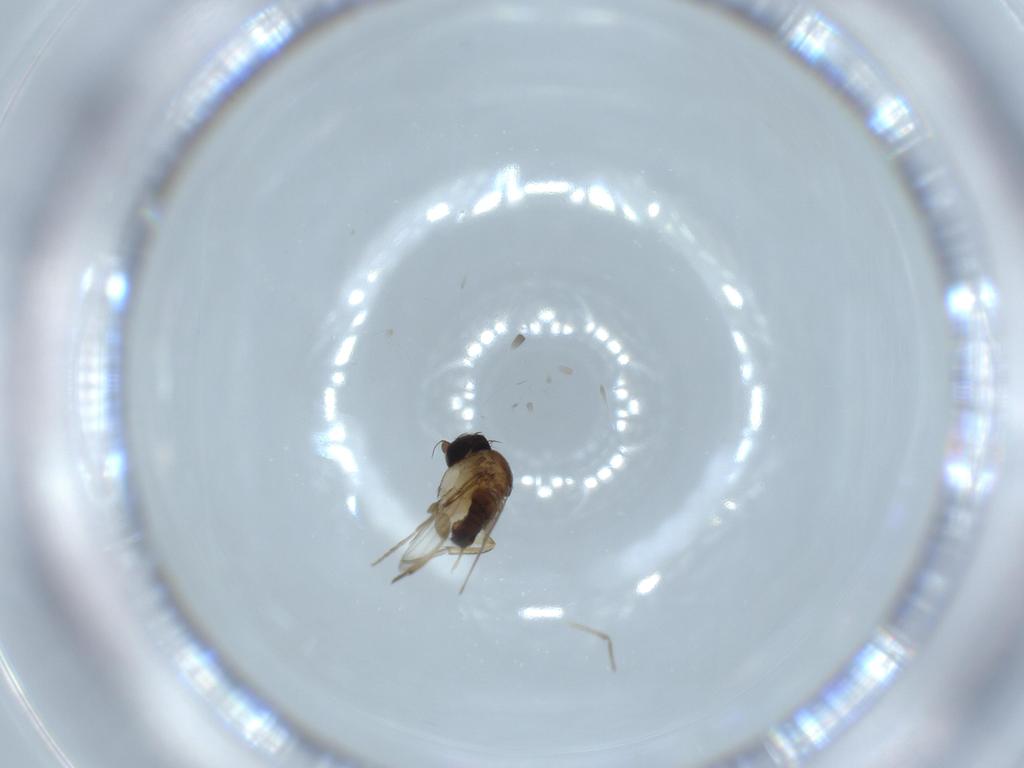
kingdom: Animalia
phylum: Arthropoda
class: Insecta
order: Diptera
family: Phoridae
